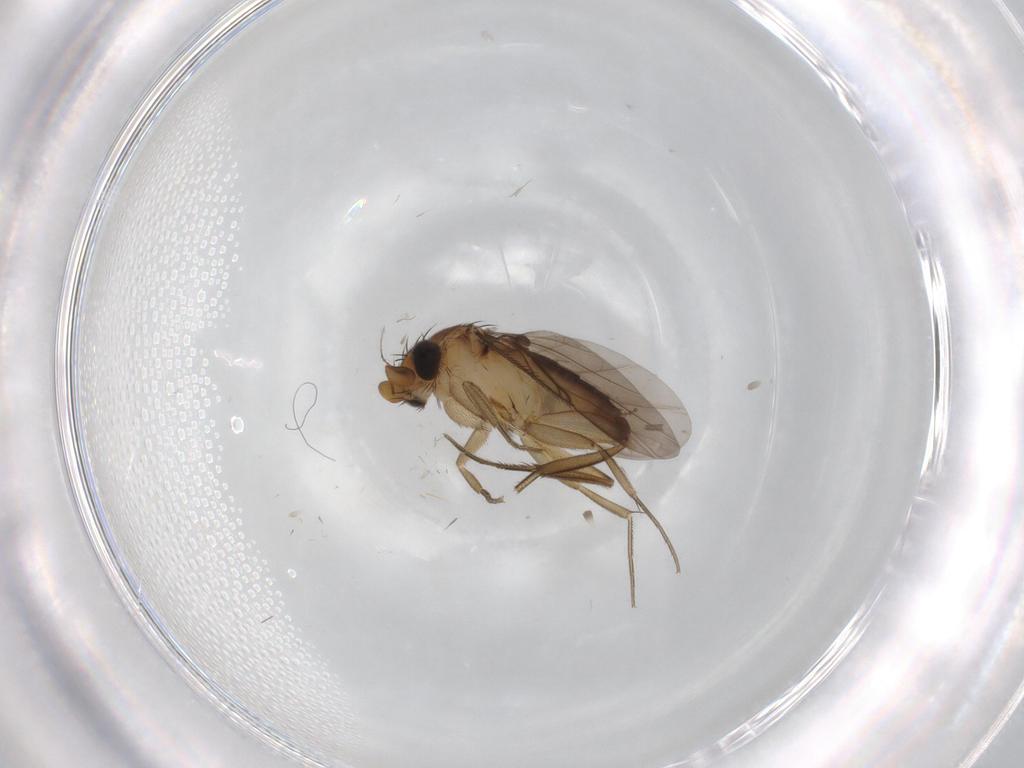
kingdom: Animalia
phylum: Arthropoda
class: Insecta
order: Diptera
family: Phoridae
